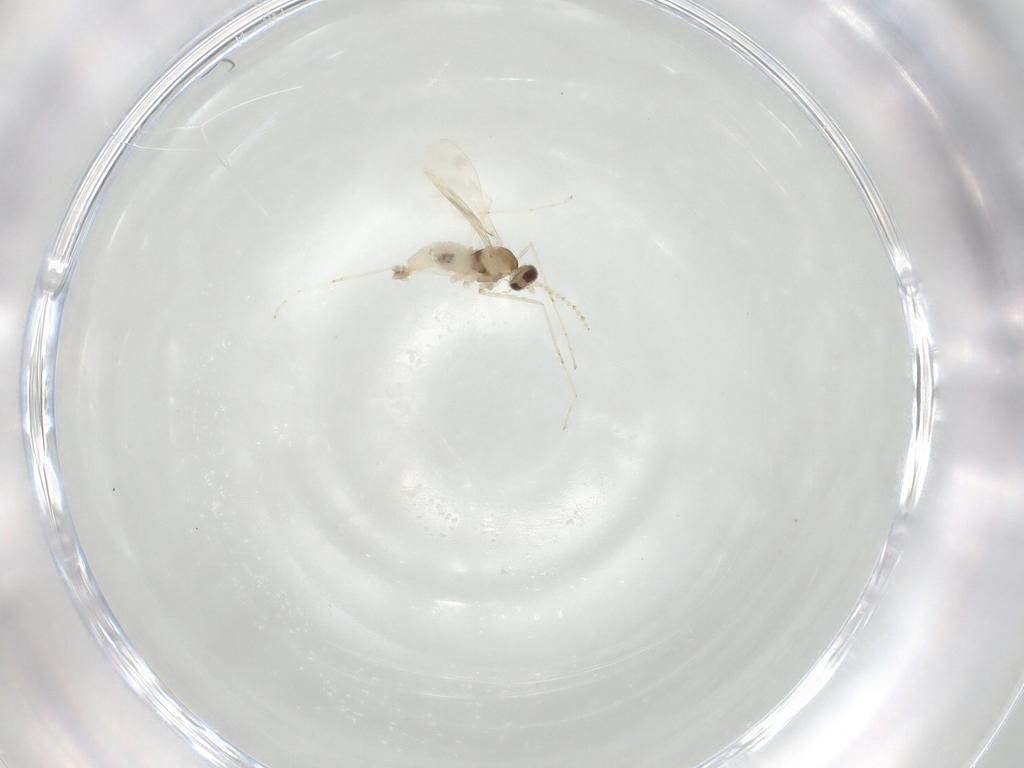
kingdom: Animalia
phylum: Arthropoda
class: Insecta
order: Diptera
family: Cecidomyiidae
